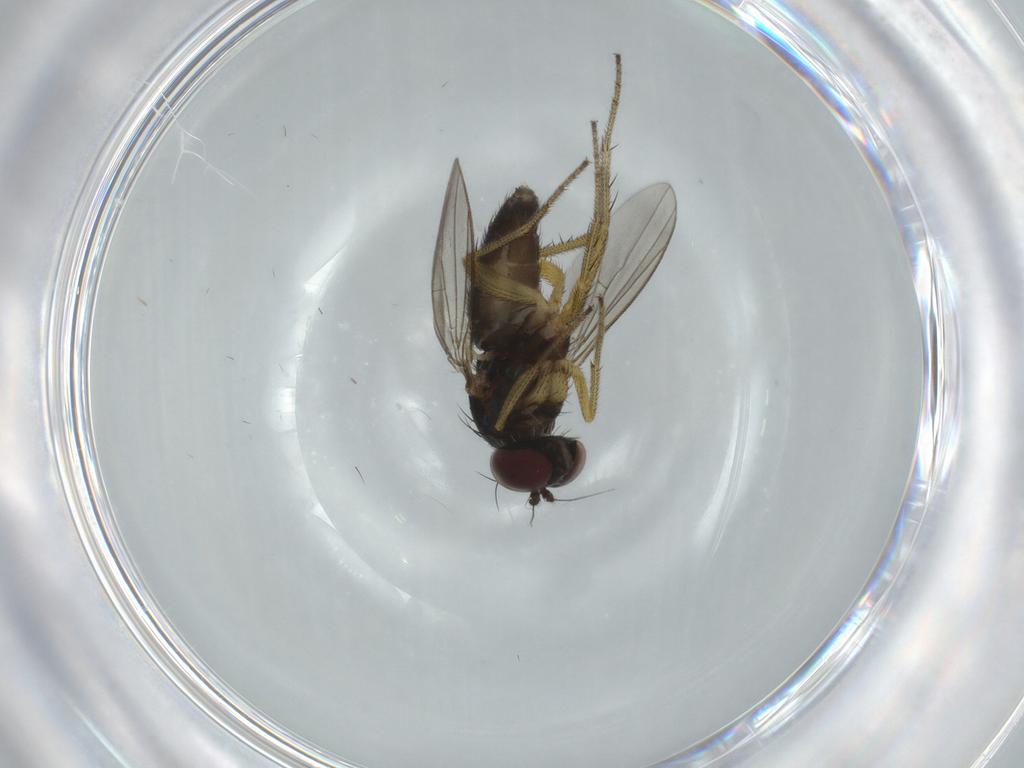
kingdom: Animalia
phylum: Arthropoda
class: Insecta
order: Diptera
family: Dolichopodidae
